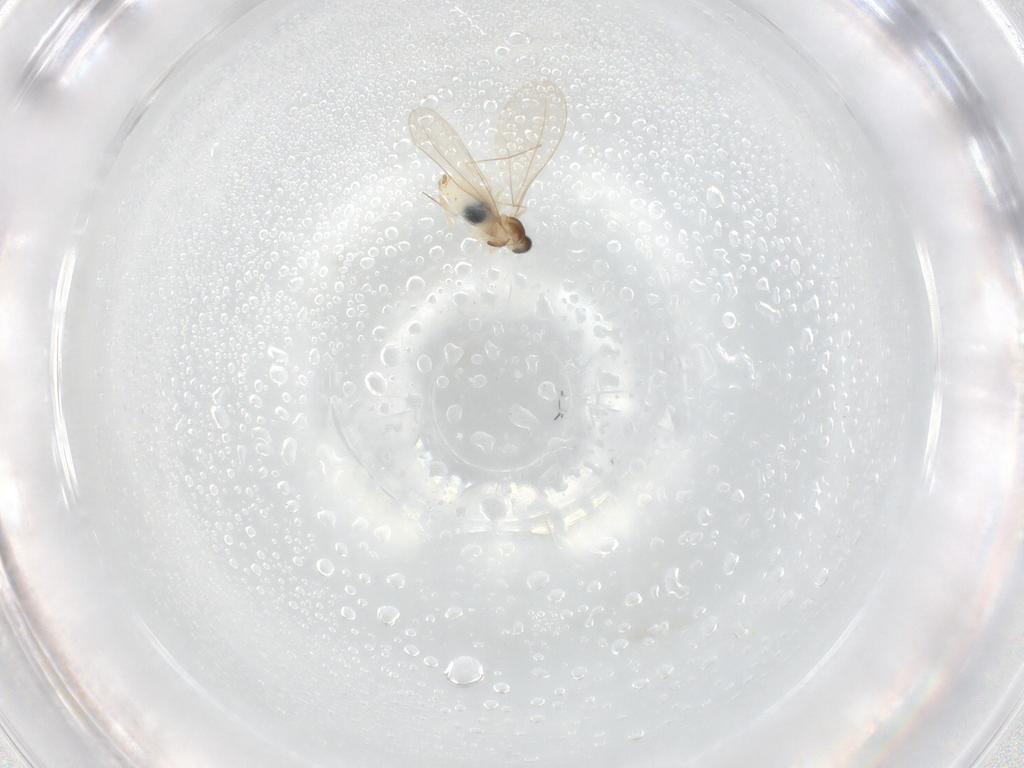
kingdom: Animalia
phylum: Arthropoda
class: Insecta
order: Diptera
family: Cecidomyiidae
